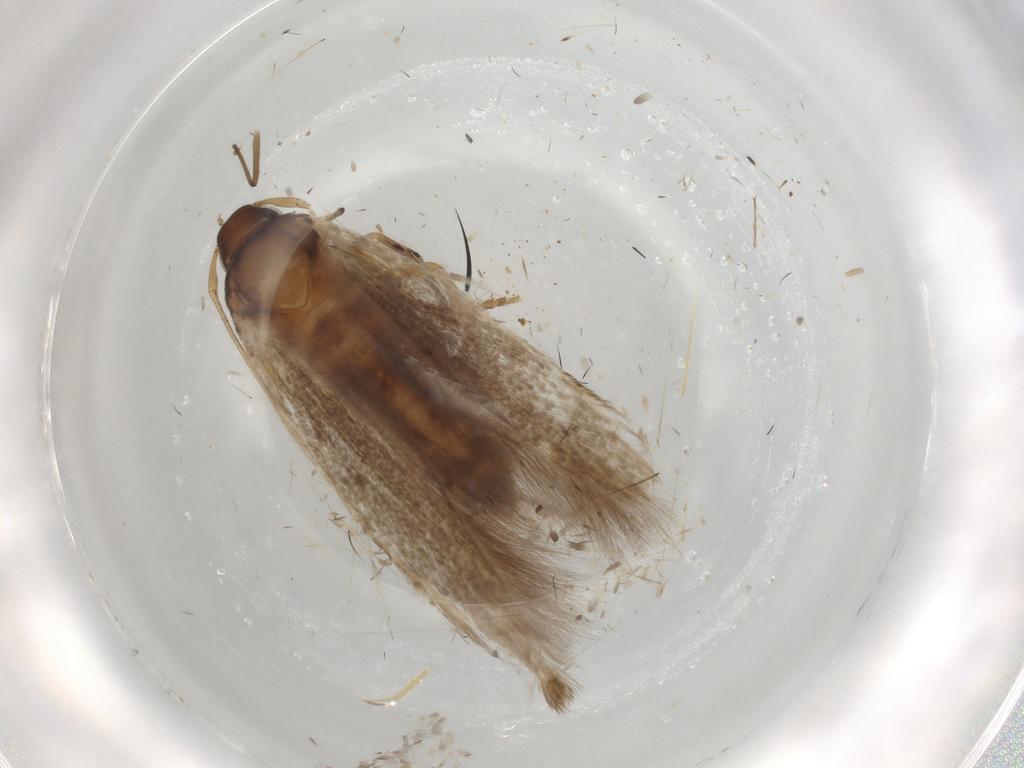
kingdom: Animalia
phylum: Arthropoda
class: Insecta
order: Lepidoptera
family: Cosmopterigidae
